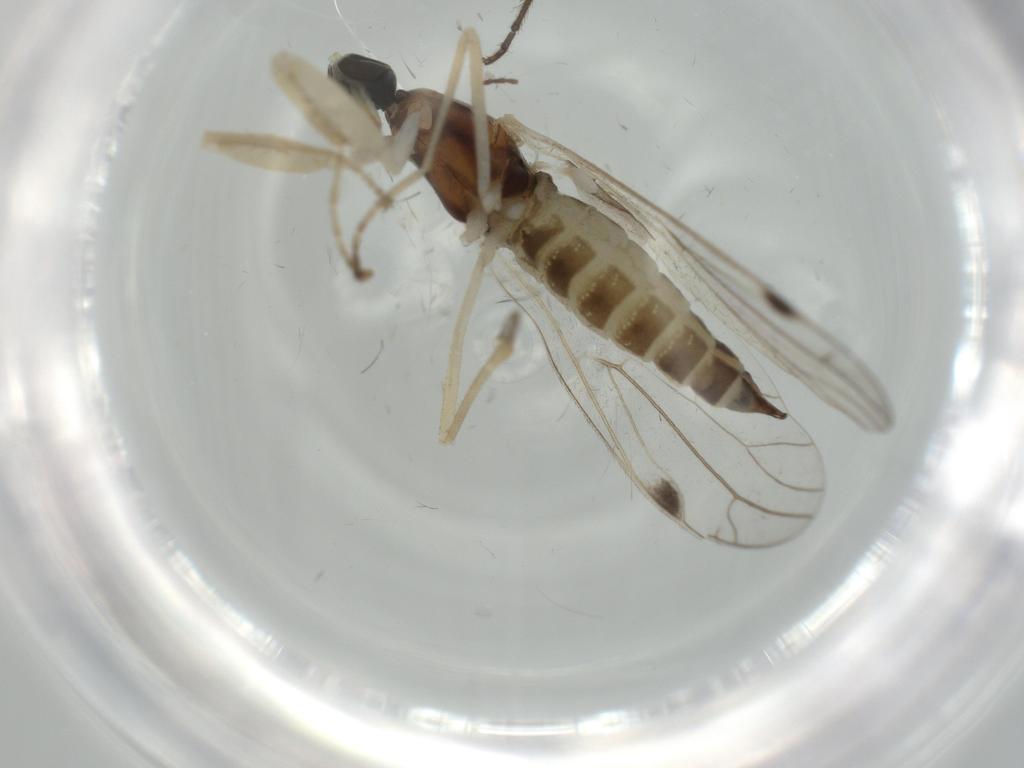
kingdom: Animalia
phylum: Arthropoda
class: Insecta
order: Diptera
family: Empididae
